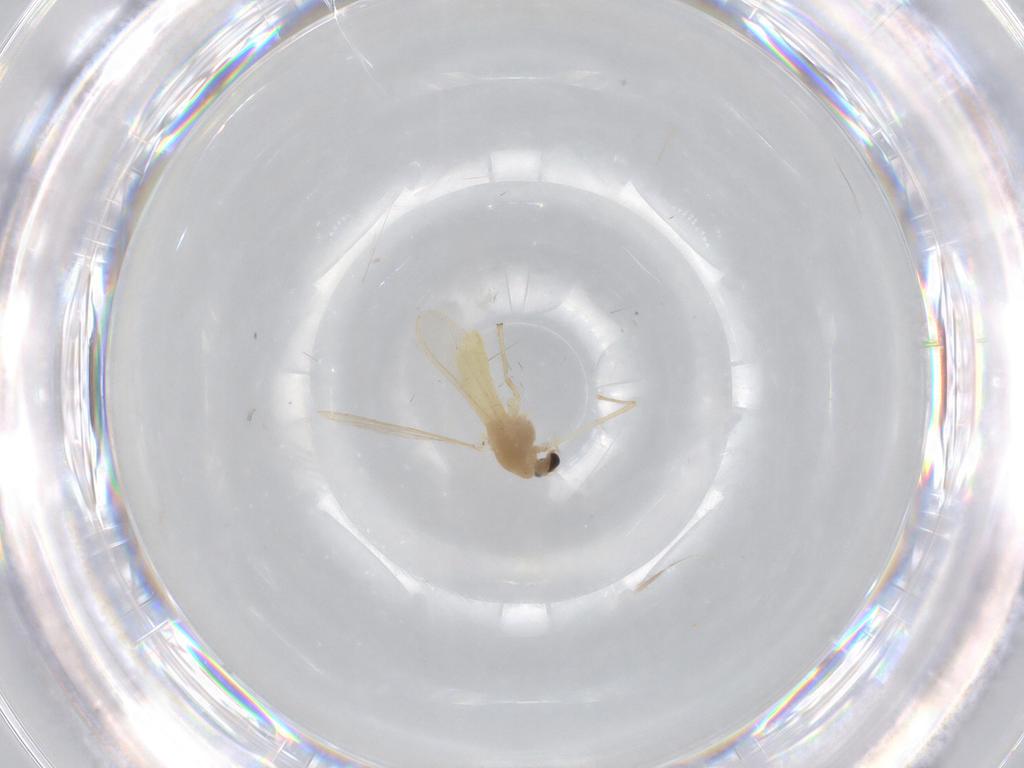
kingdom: Animalia
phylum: Arthropoda
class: Insecta
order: Diptera
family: Chironomidae
